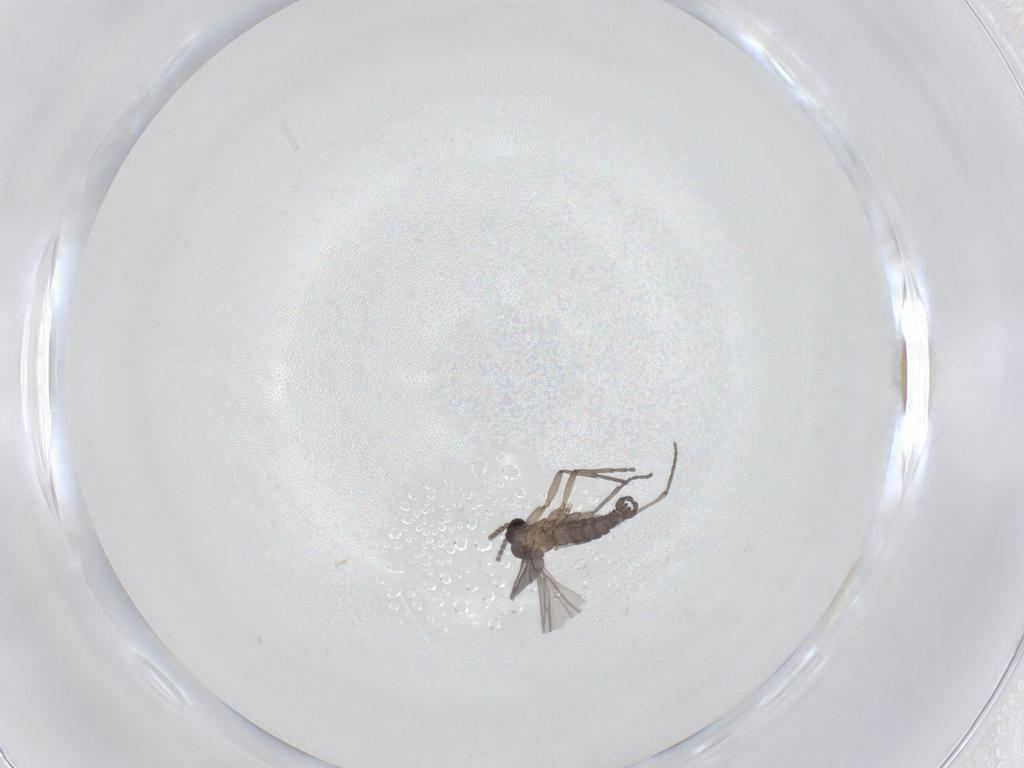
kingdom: Animalia
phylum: Arthropoda
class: Insecta
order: Diptera
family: Sciaridae
